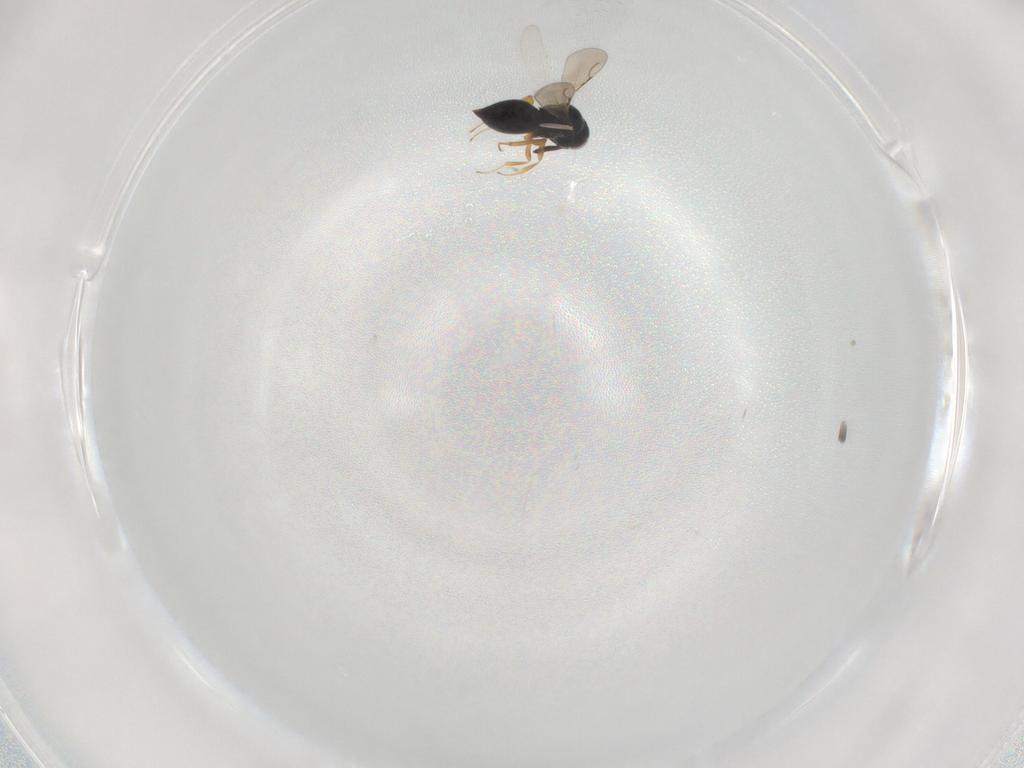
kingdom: Animalia
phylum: Arthropoda
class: Insecta
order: Hymenoptera
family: Ceraphronidae
